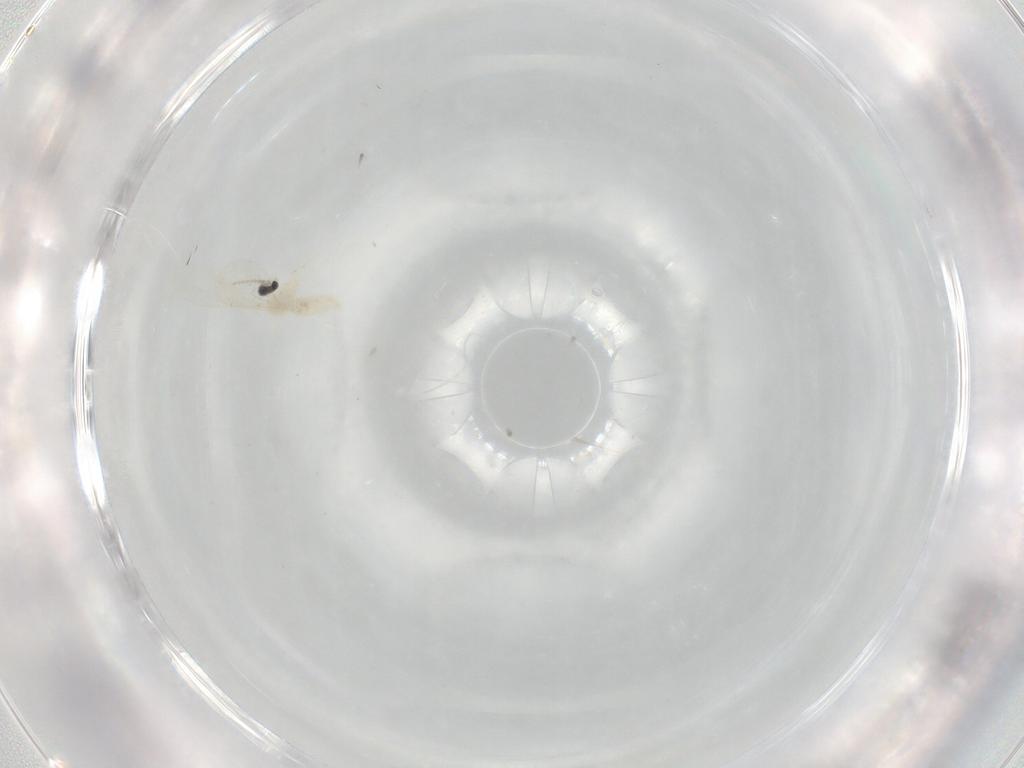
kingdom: Animalia
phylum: Arthropoda
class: Insecta
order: Diptera
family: Cecidomyiidae
